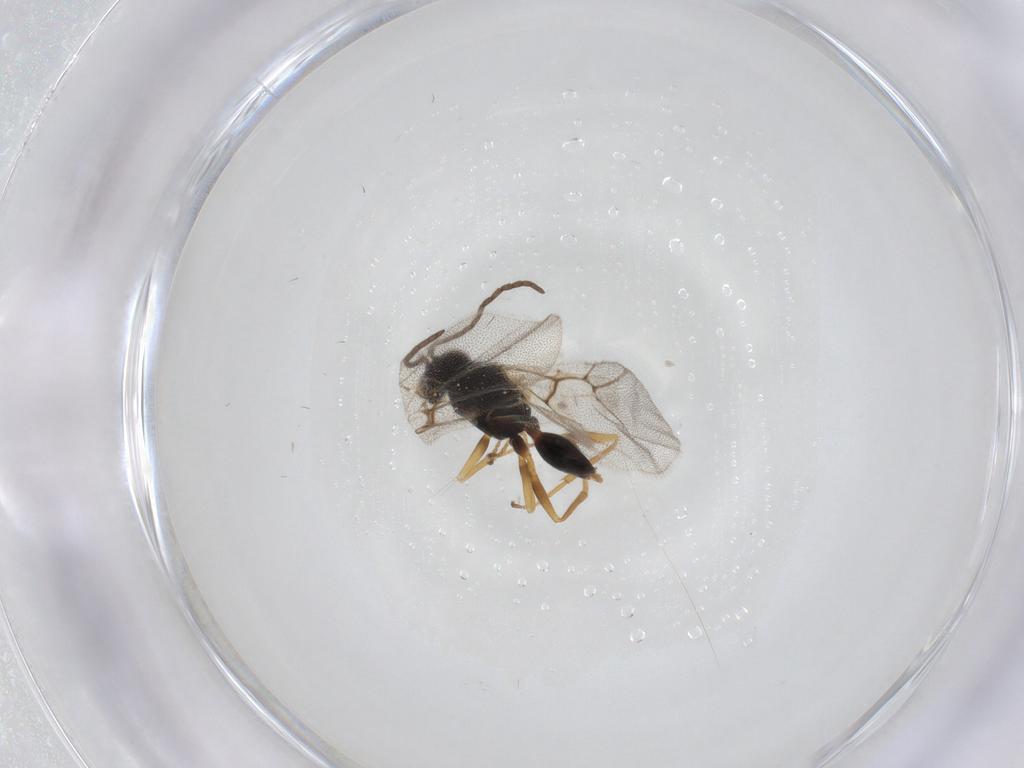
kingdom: Animalia
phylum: Arthropoda
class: Insecta
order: Hymenoptera
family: Cynipidae
